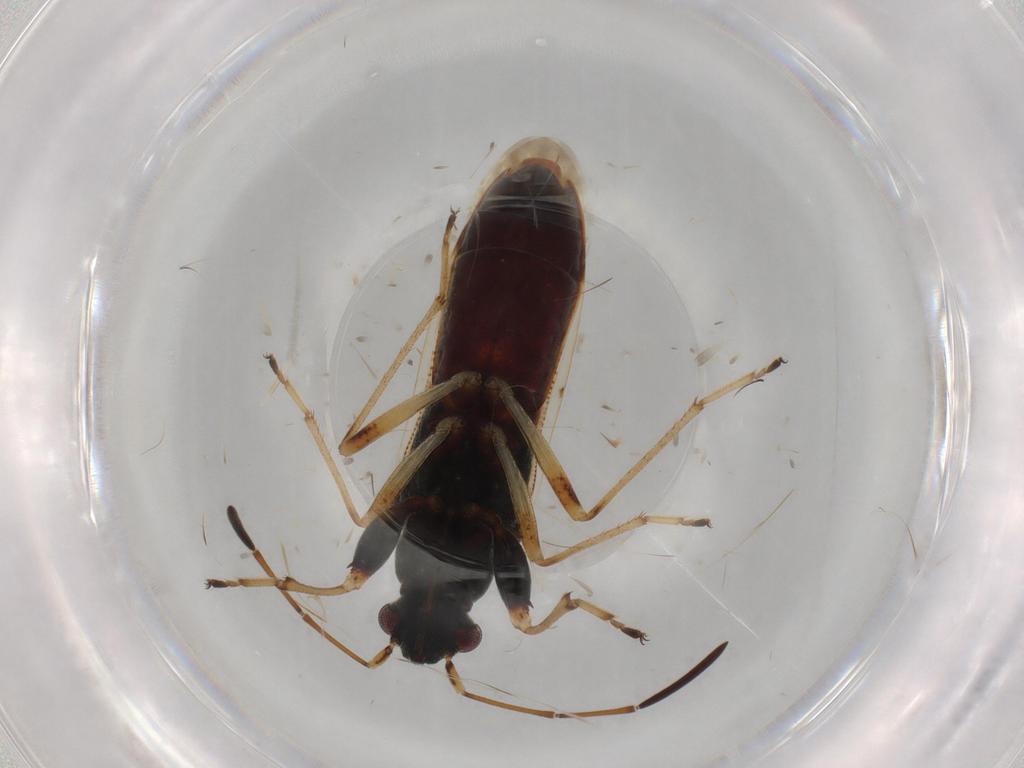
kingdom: Animalia
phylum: Arthropoda
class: Insecta
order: Hemiptera
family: Rhyparochromidae
